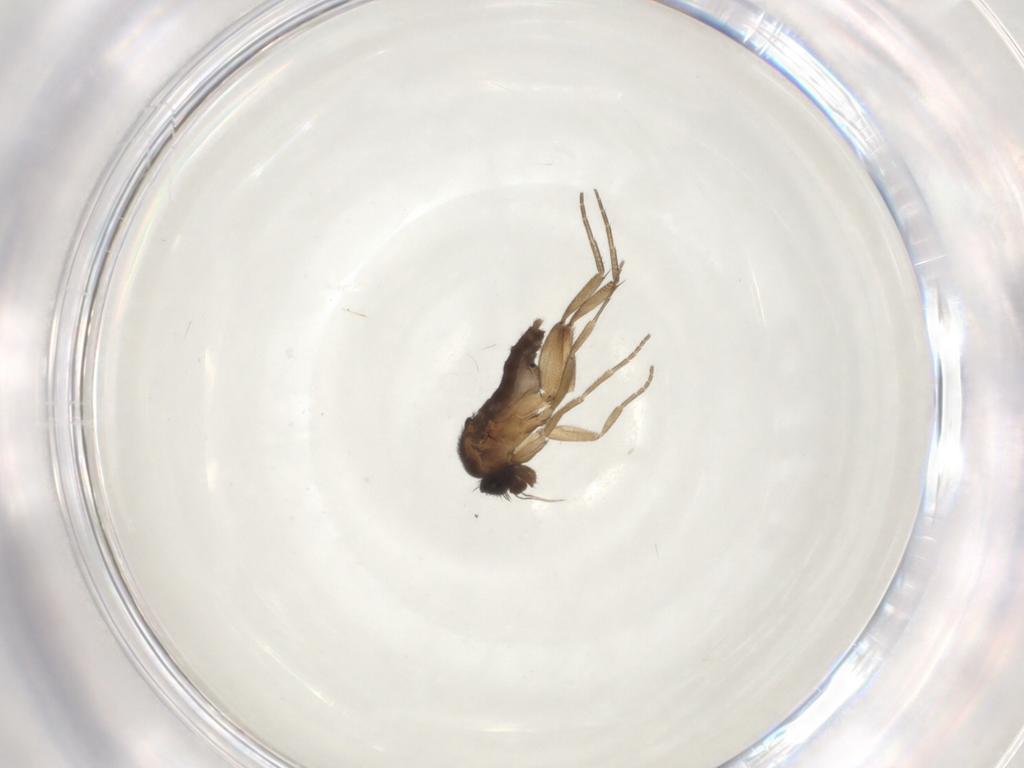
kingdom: Animalia
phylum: Arthropoda
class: Insecta
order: Diptera
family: Phoridae
